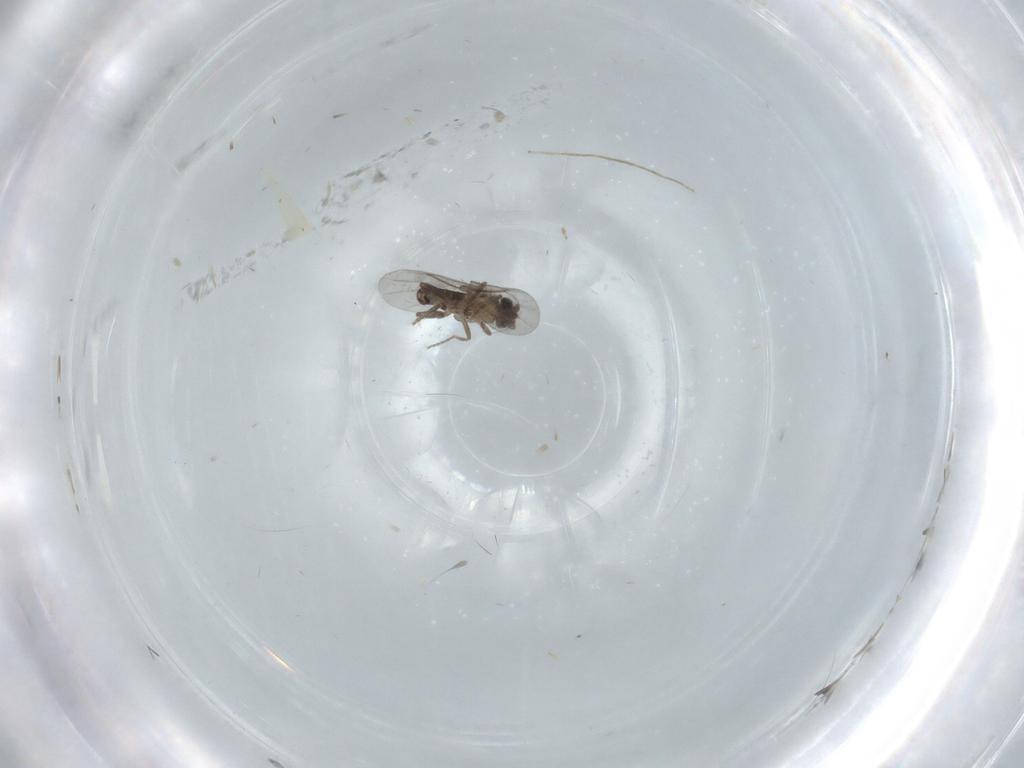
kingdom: Animalia
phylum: Arthropoda
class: Insecta
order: Diptera
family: Chironomidae
